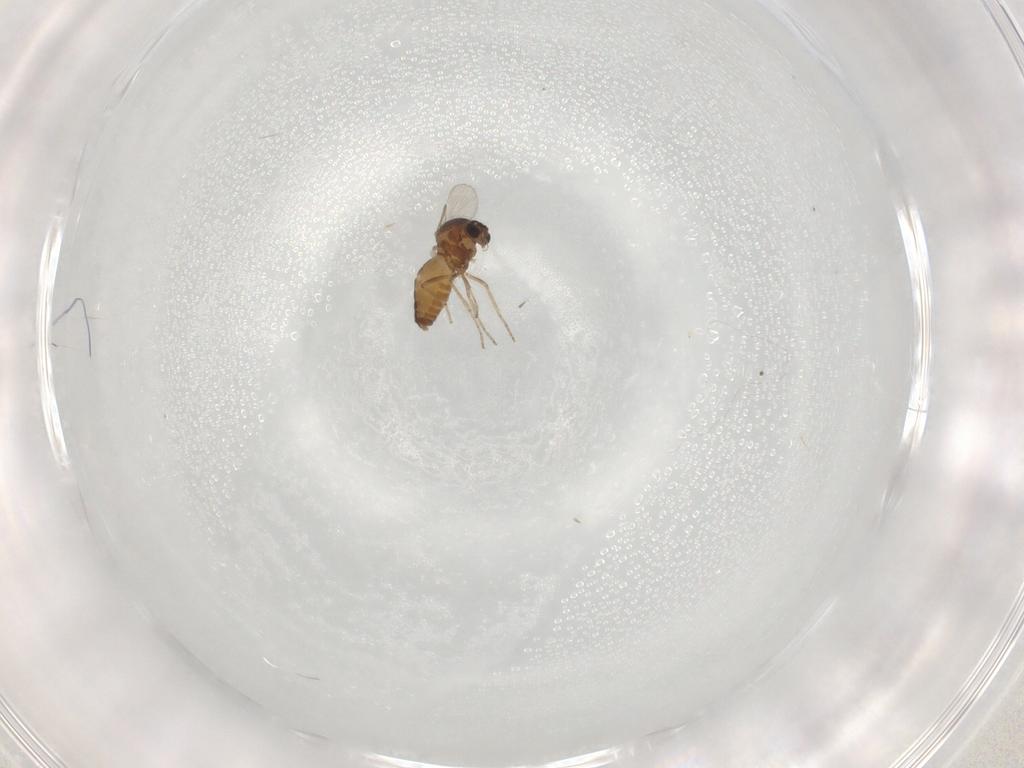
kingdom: Animalia
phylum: Arthropoda
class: Insecta
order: Diptera
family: Ceratopogonidae
